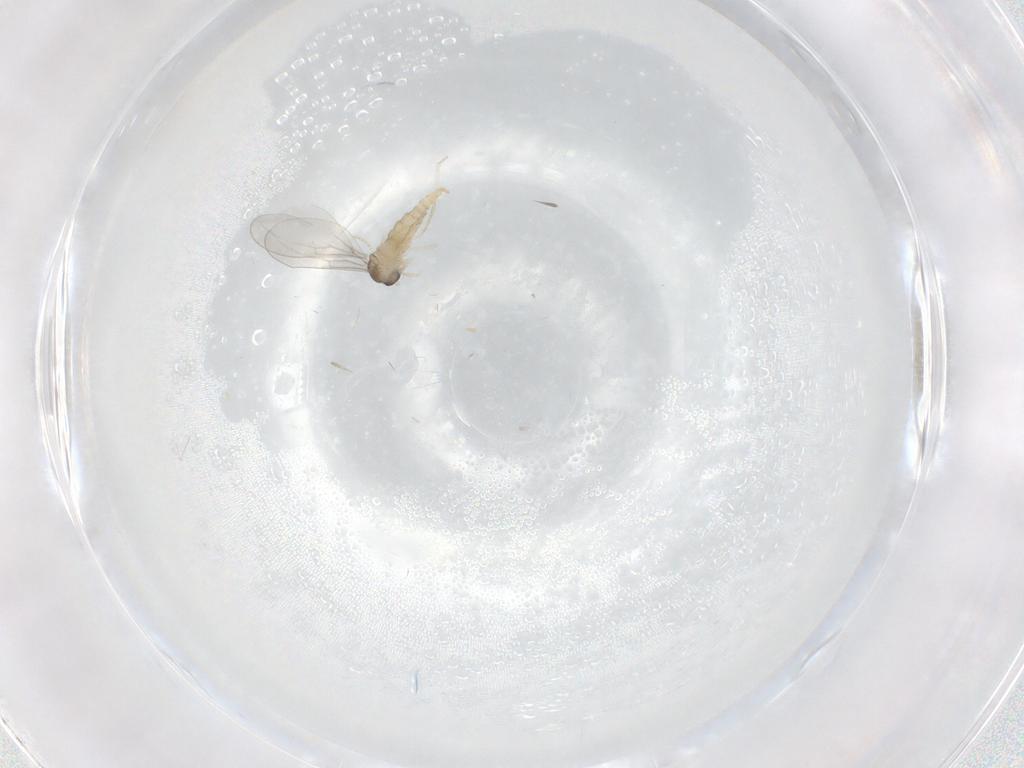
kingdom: Animalia
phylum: Arthropoda
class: Insecta
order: Diptera
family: Cecidomyiidae
